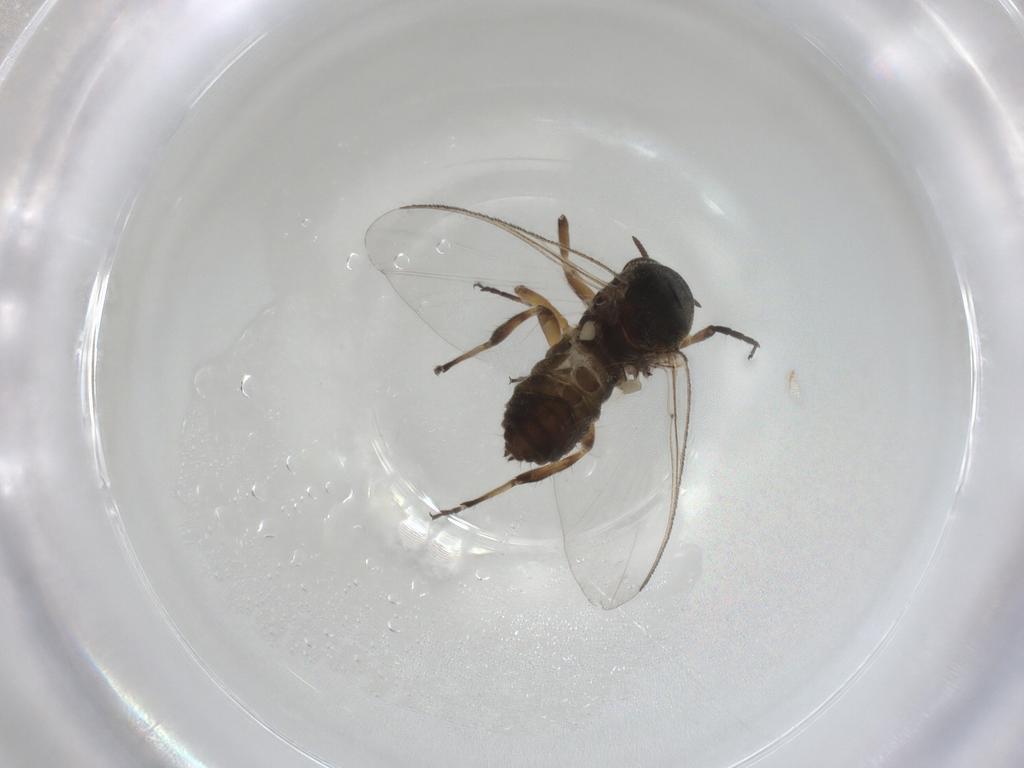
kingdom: Animalia
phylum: Arthropoda
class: Insecta
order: Diptera
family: Simuliidae
